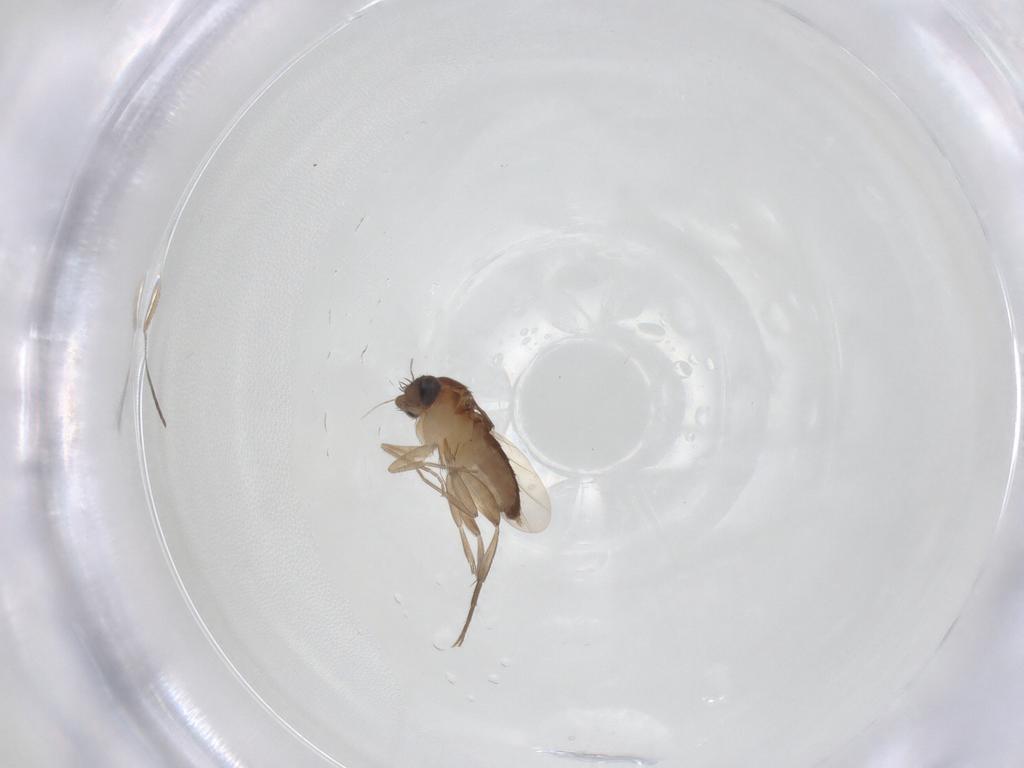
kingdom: Animalia
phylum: Arthropoda
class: Insecta
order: Diptera
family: Phoridae
